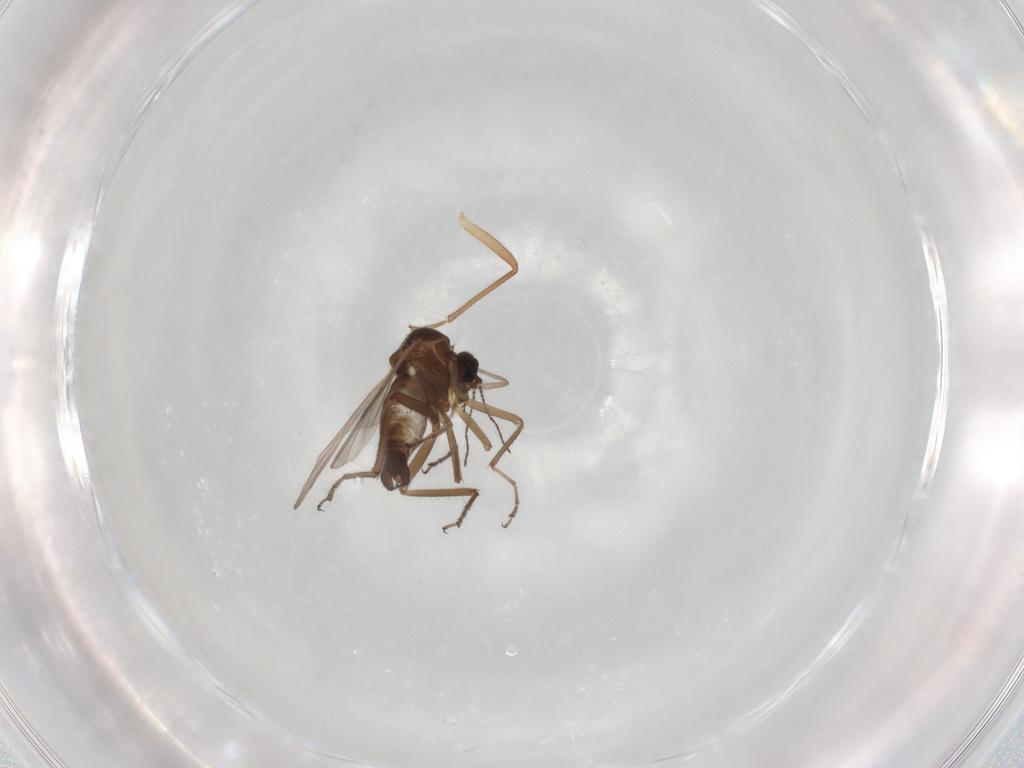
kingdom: Animalia
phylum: Arthropoda
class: Insecta
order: Diptera
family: Muscidae
